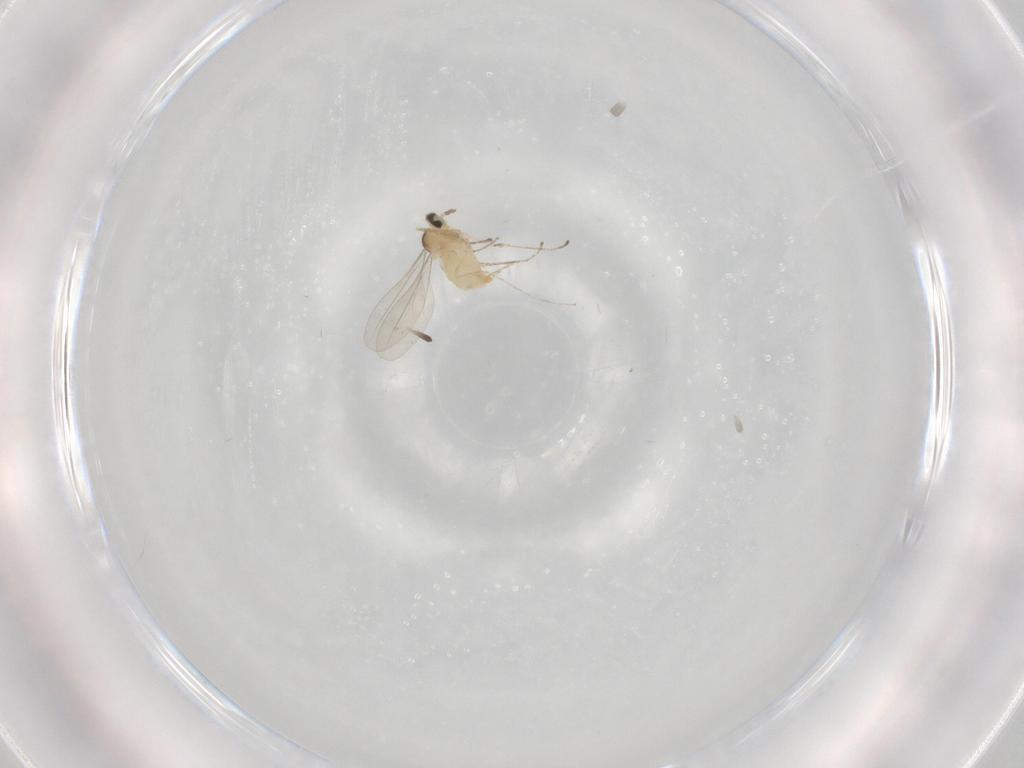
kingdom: Animalia
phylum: Arthropoda
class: Insecta
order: Diptera
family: Cecidomyiidae
